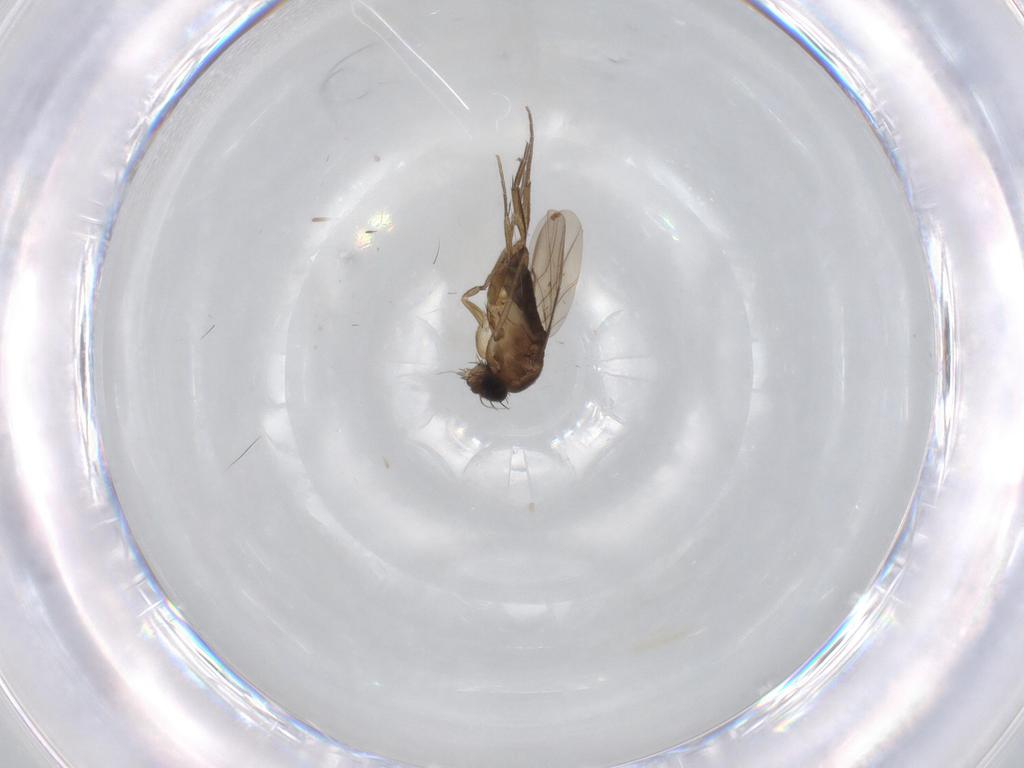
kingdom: Animalia
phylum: Arthropoda
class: Insecta
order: Diptera
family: Phoridae
